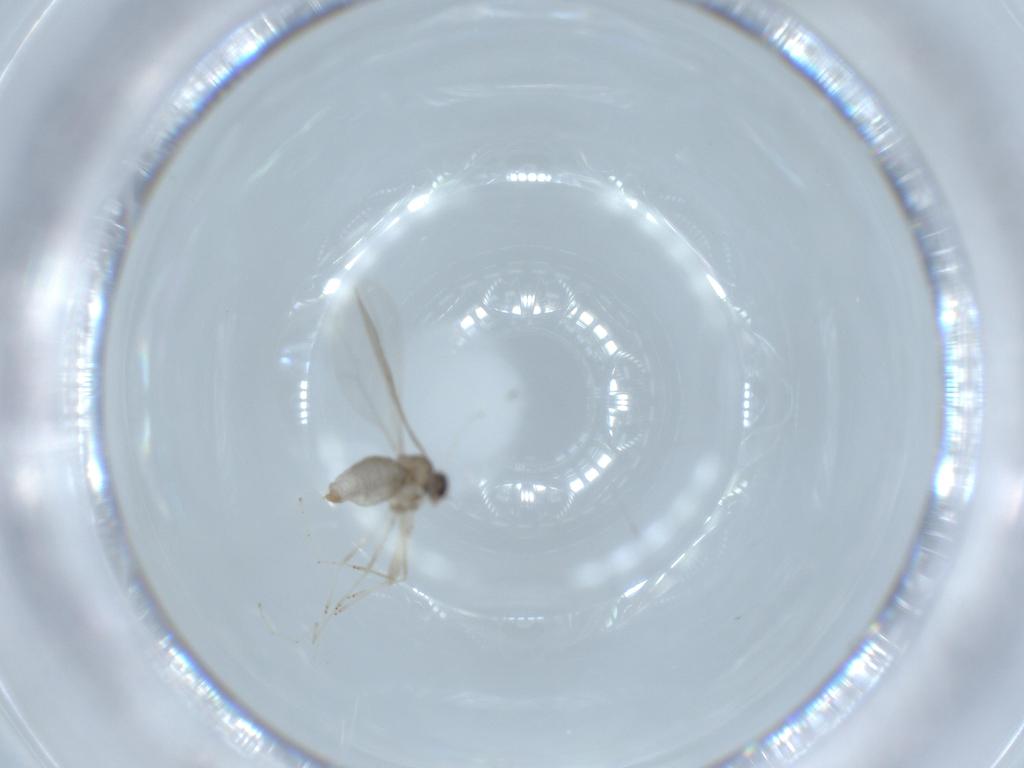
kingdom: Animalia
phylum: Arthropoda
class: Insecta
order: Diptera
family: Cecidomyiidae
